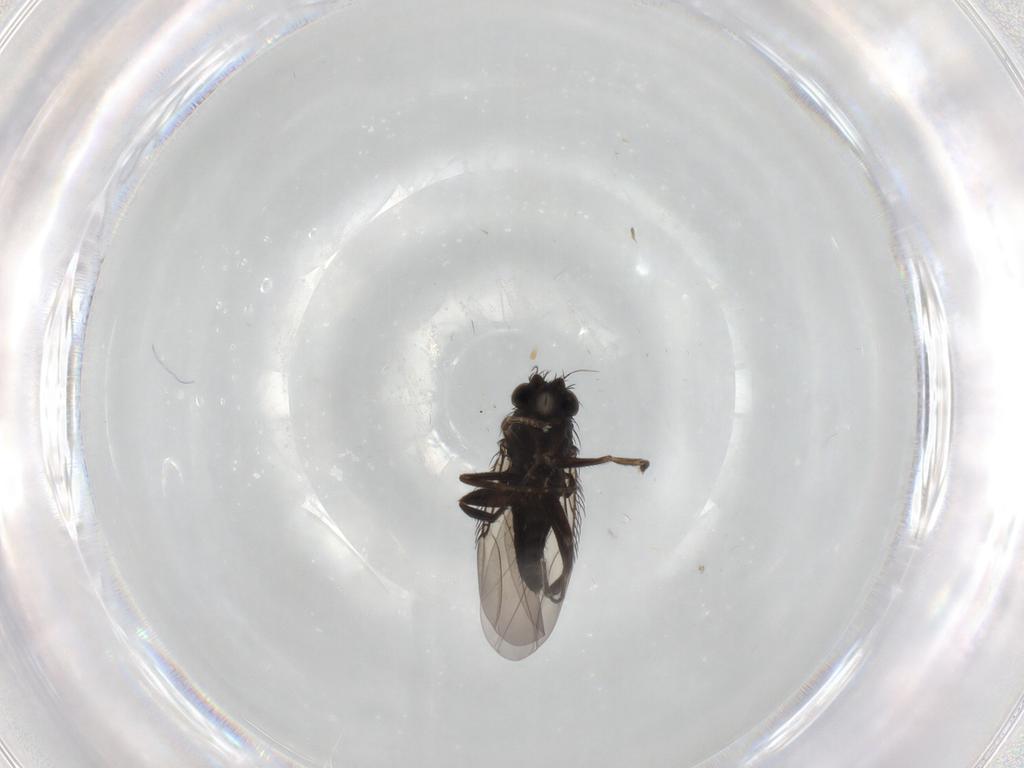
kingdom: Animalia
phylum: Arthropoda
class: Insecta
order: Diptera
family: Phoridae
